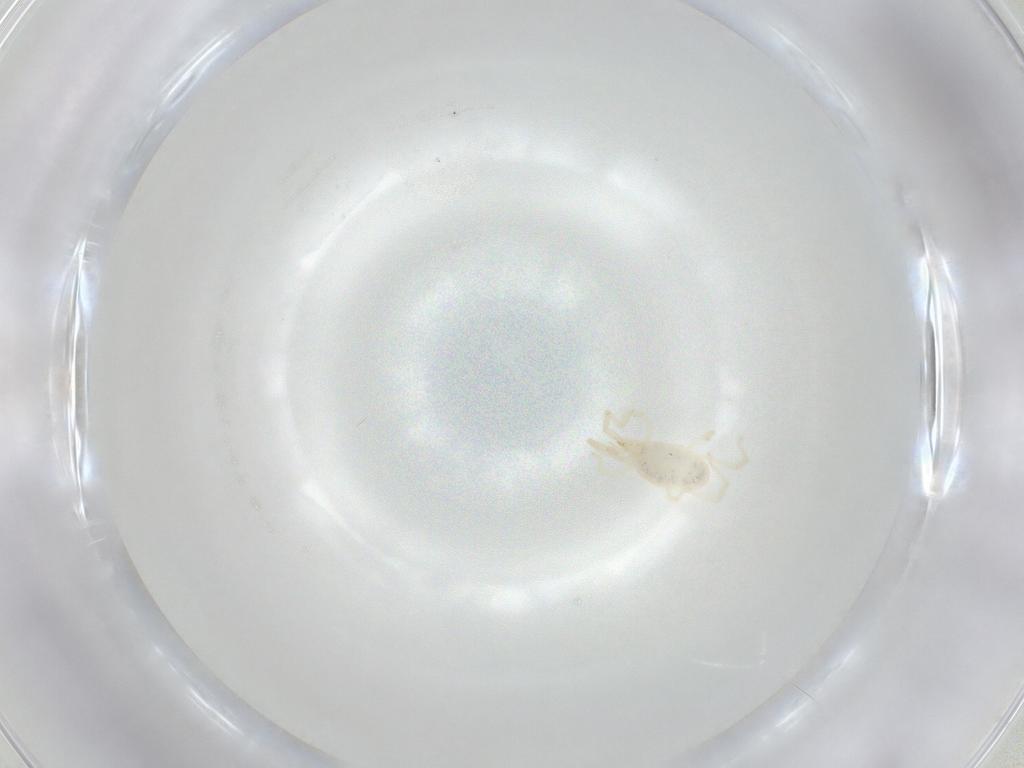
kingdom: Animalia
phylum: Arthropoda
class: Arachnida
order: Trombidiformes
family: Erythraeidae
